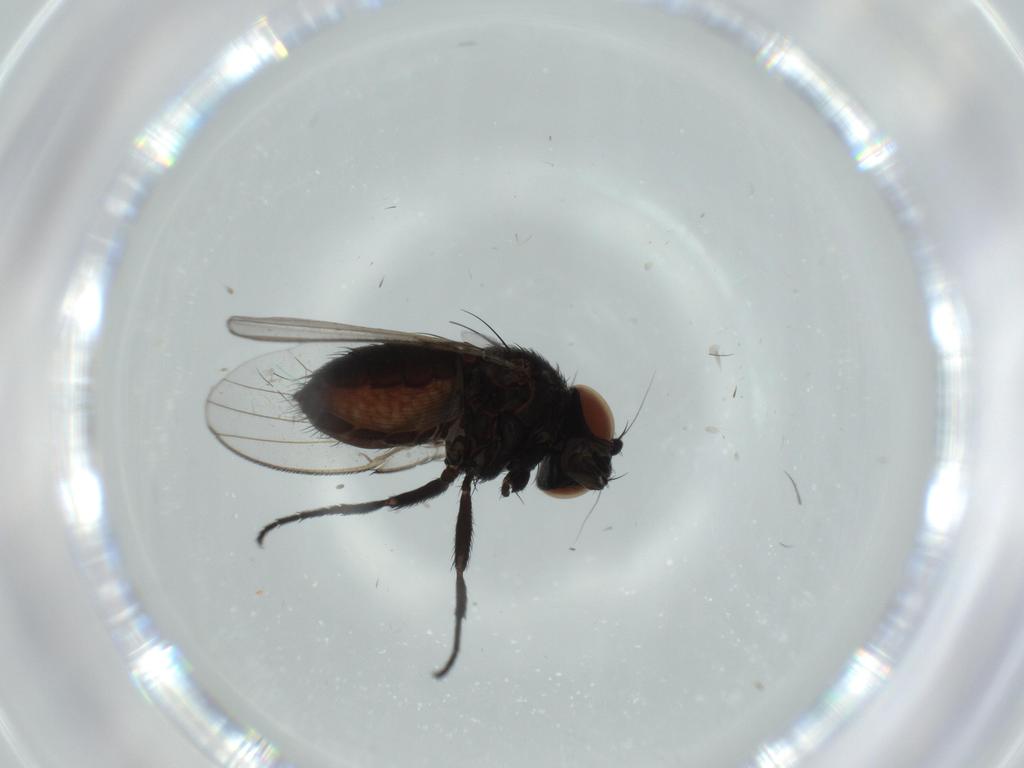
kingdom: Animalia
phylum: Arthropoda
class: Insecta
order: Diptera
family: Milichiidae
